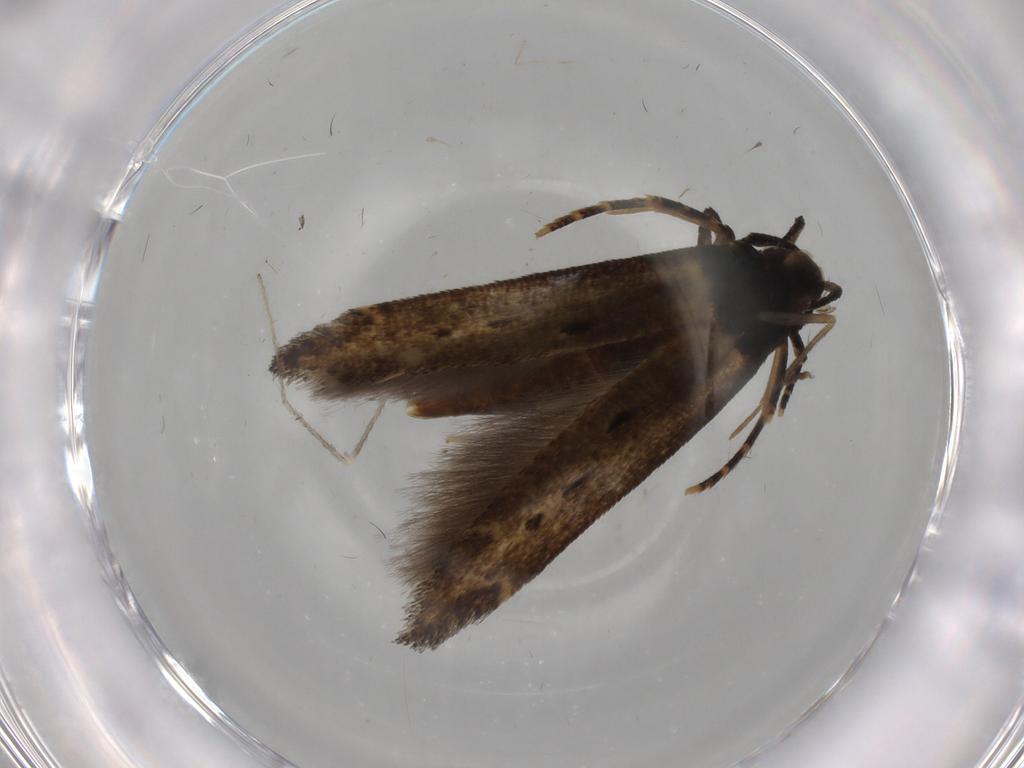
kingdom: Animalia
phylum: Arthropoda
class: Insecta
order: Lepidoptera
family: Cosmopterigidae
